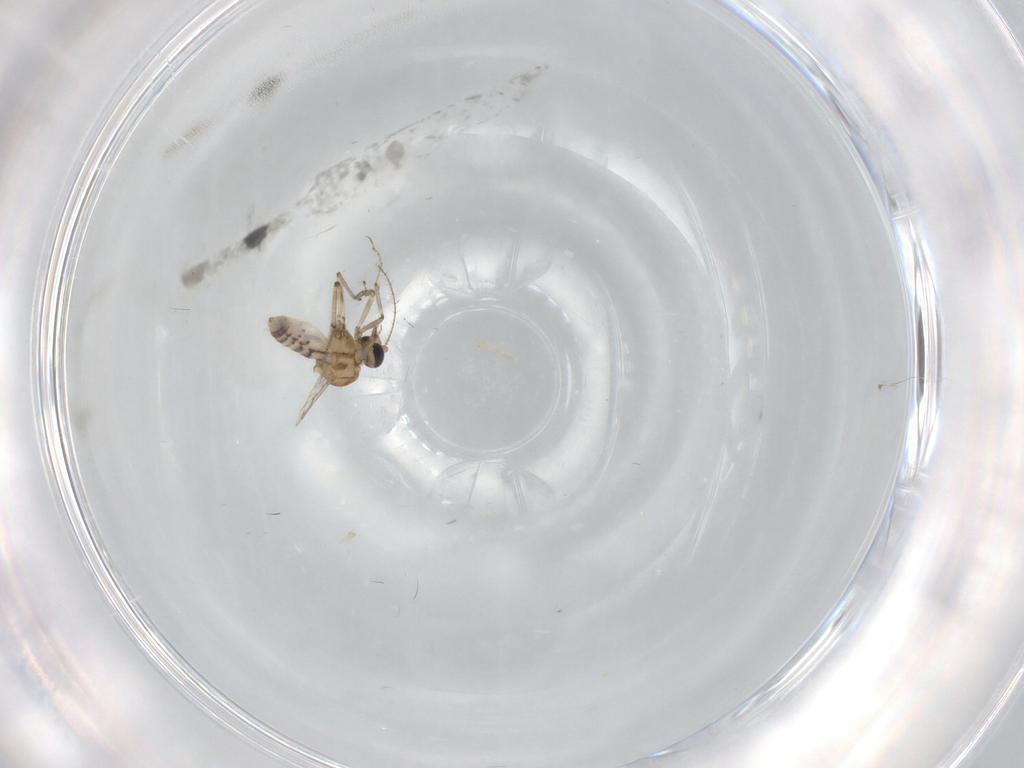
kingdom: Animalia
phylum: Arthropoda
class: Insecta
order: Diptera
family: Ceratopogonidae
